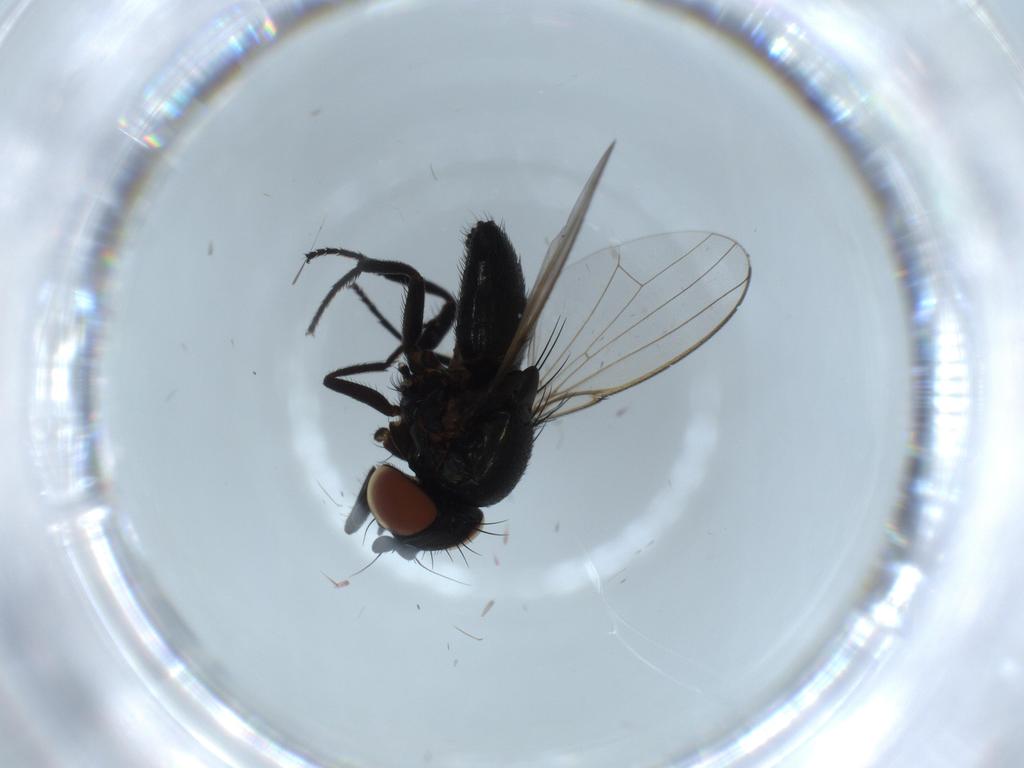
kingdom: Animalia
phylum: Arthropoda
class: Insecta
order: Diptera
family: Milichiidae
